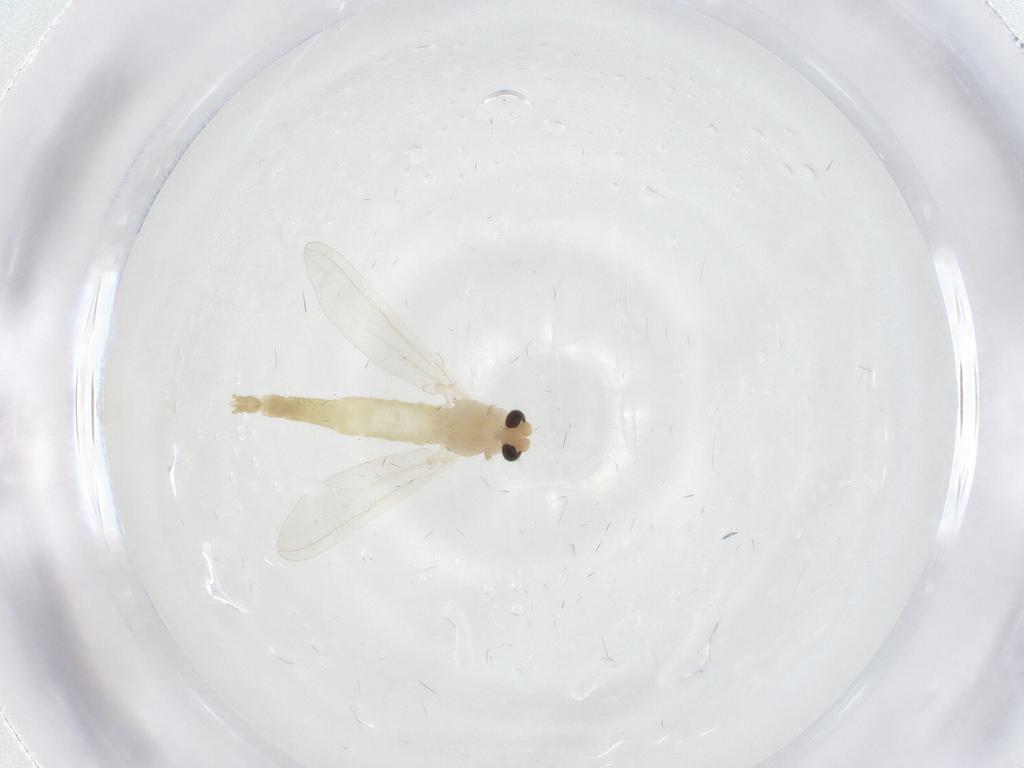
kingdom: Animalia
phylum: Arthropoda
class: Insecta
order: Diptera
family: Chironomidae
